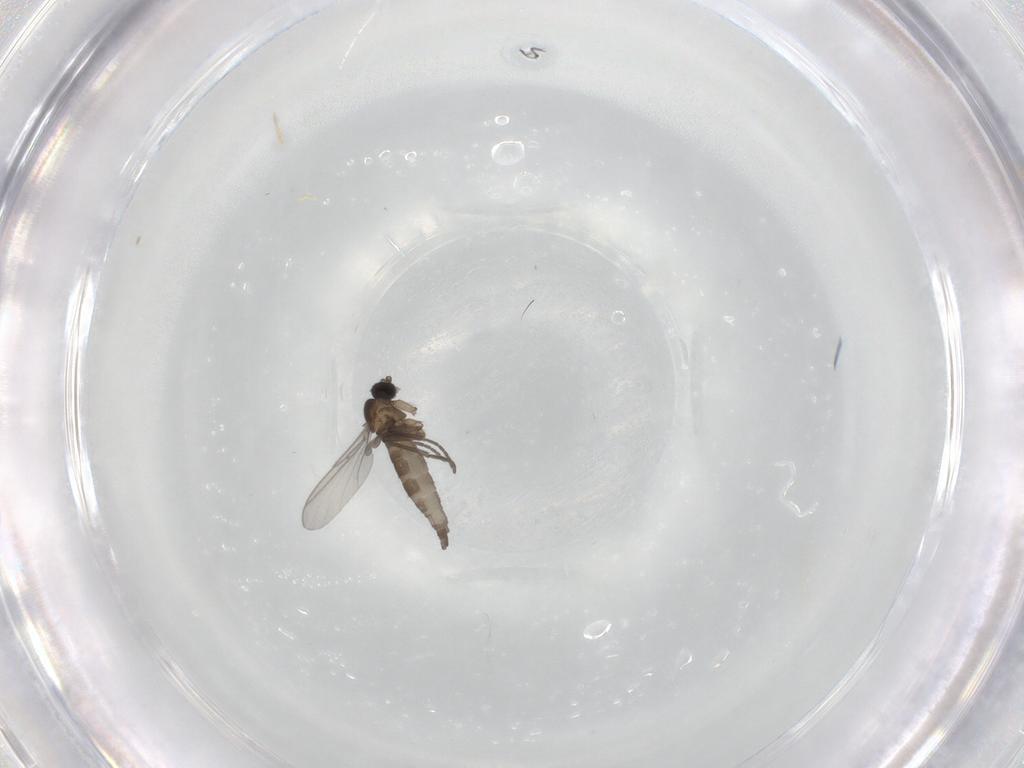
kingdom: Animalia
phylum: Arthropoda
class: Insecta
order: Diptera
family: Sciaridae
